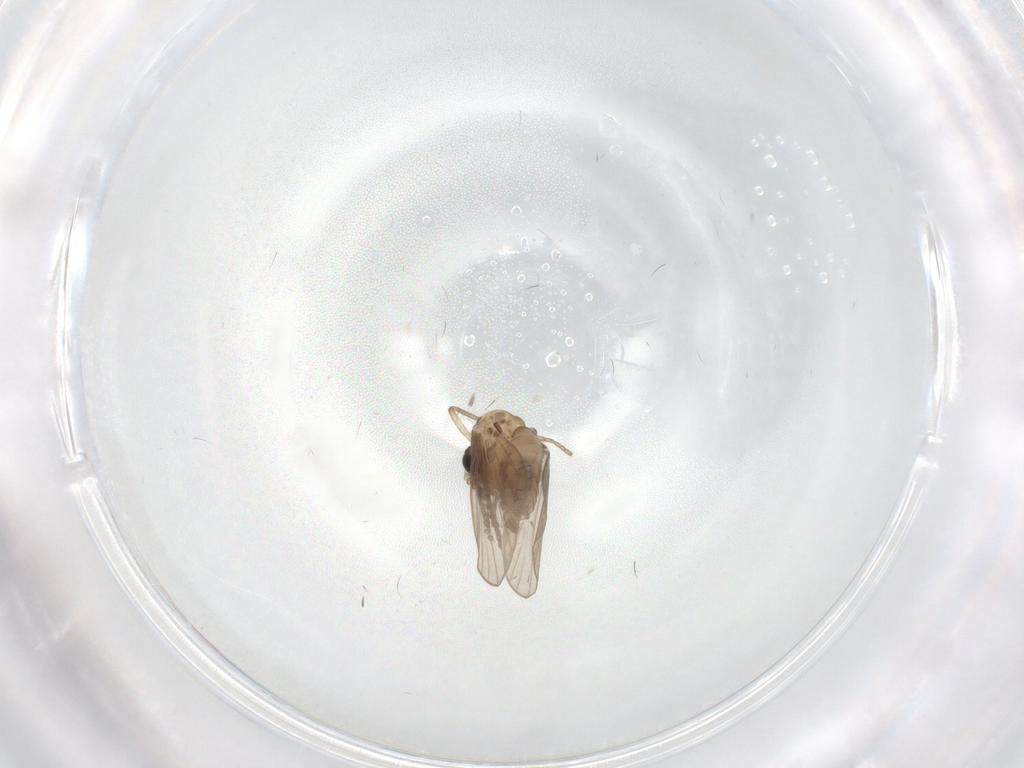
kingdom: Animalia
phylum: Arthropoda
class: Insecta
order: Diptera
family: Psychodidae
